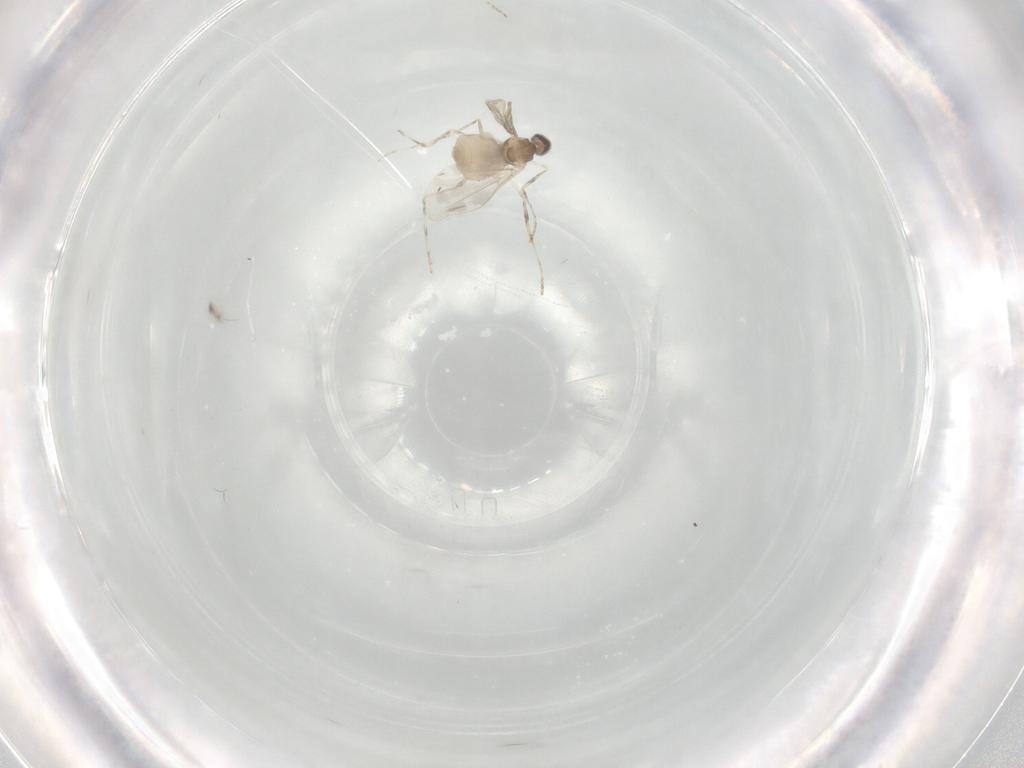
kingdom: Animalia
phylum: Arthropoda
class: Insecta
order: Diptera
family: Cecidomyiidae
